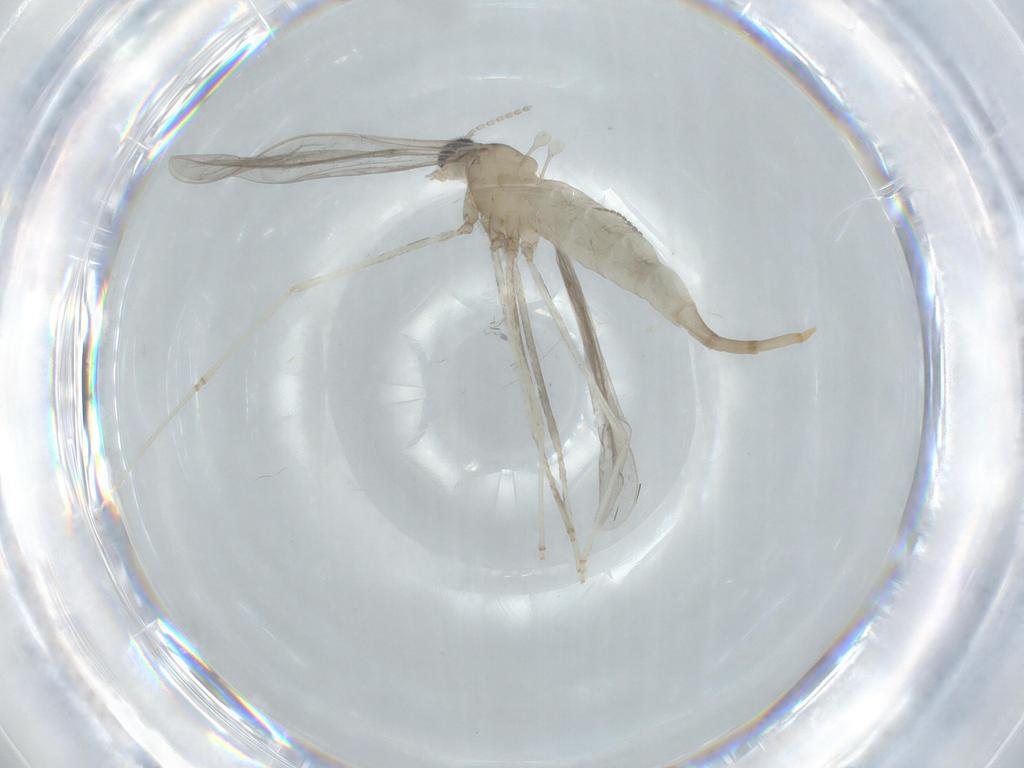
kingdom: Animalia
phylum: Arthropoda
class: Insecta
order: Diptera
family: Cecidomyiidae
